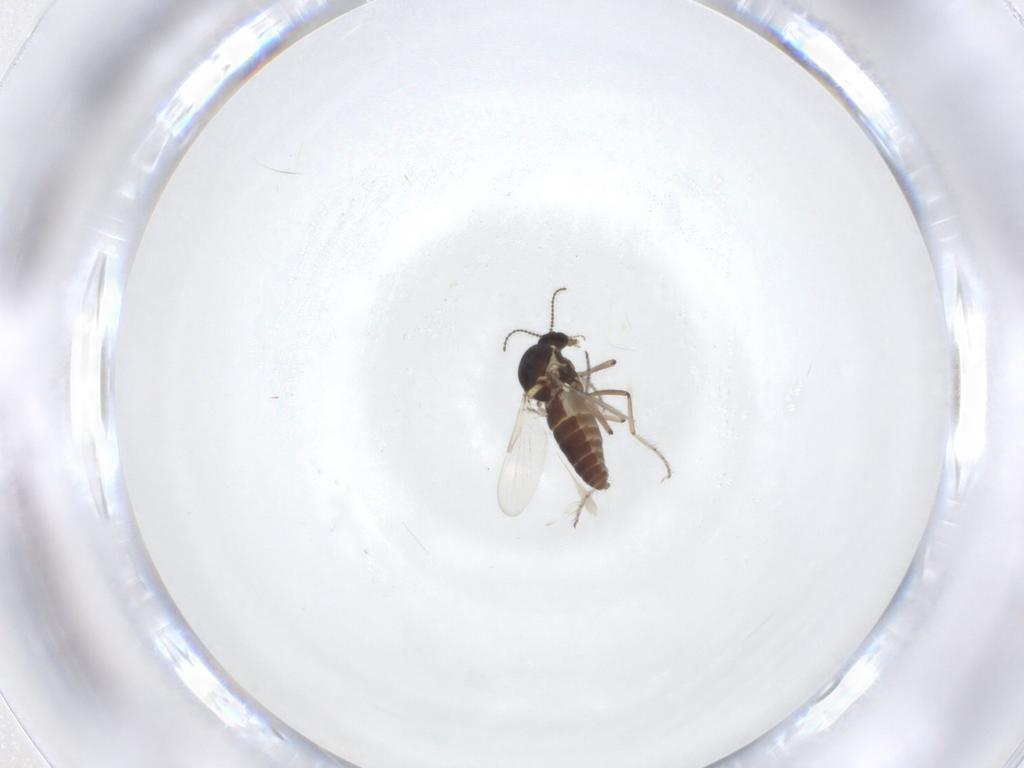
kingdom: Animalia
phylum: Arthropoda
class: Insecta
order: Diptera
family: Ceratopogonidae
